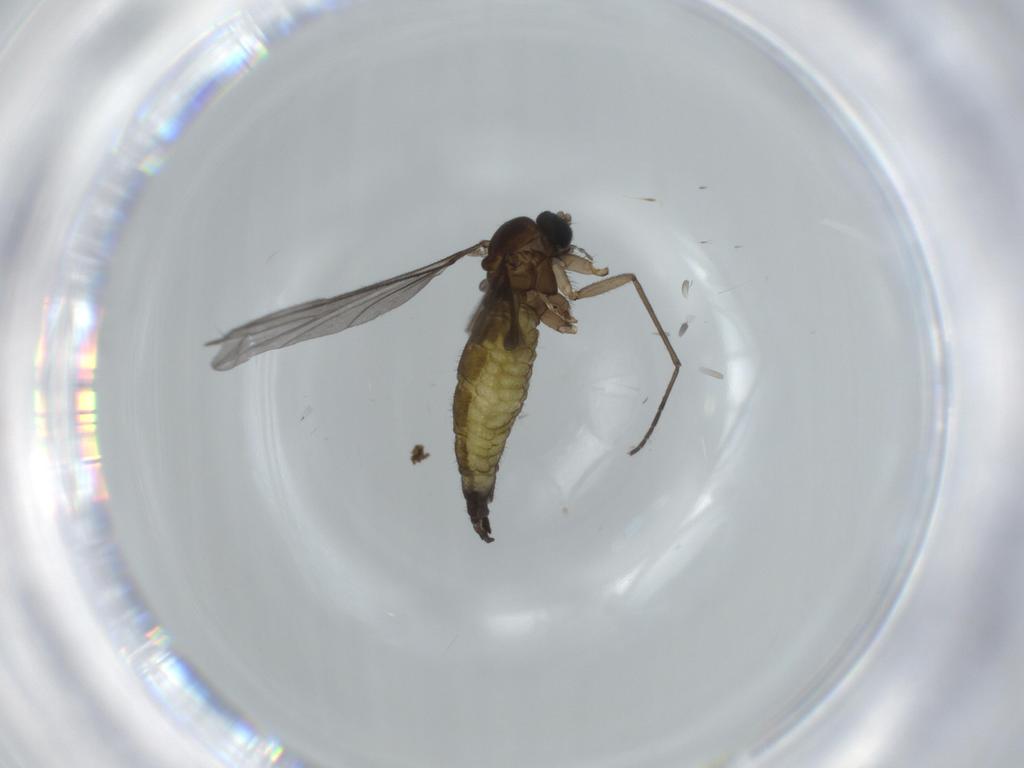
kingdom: Animalia
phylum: Arthropoda
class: Insecta
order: Diptera
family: Sciaridae
